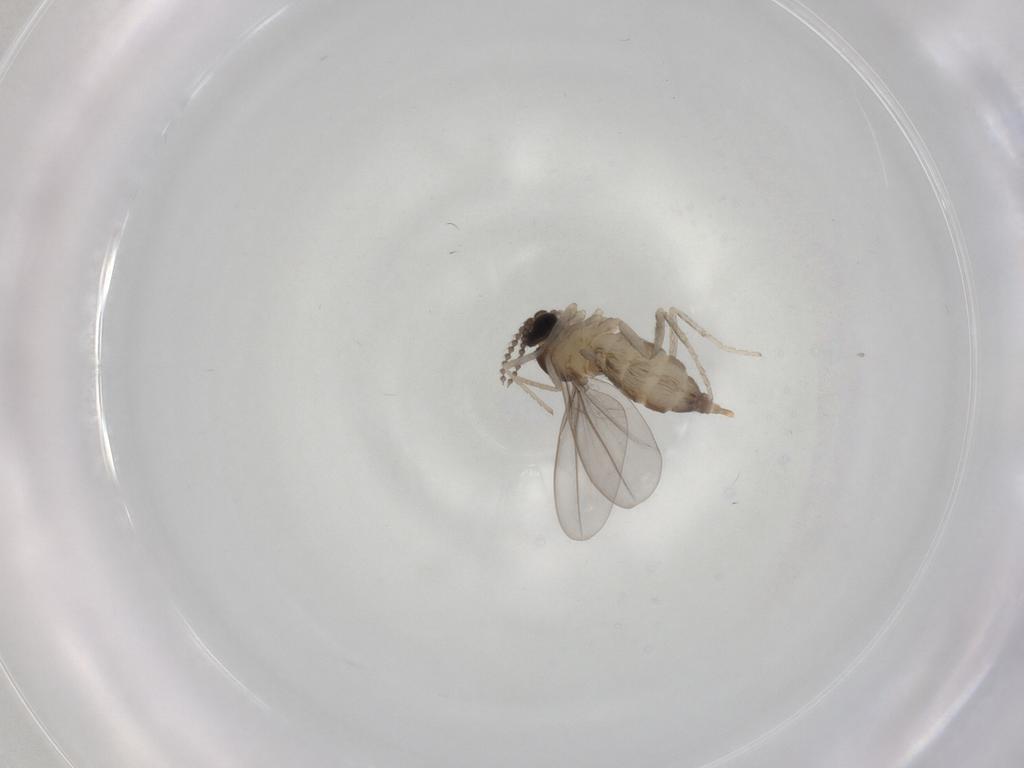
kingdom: Animalia
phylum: Arthropoda
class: Insecta
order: Diptera
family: Cecidomyiidae
